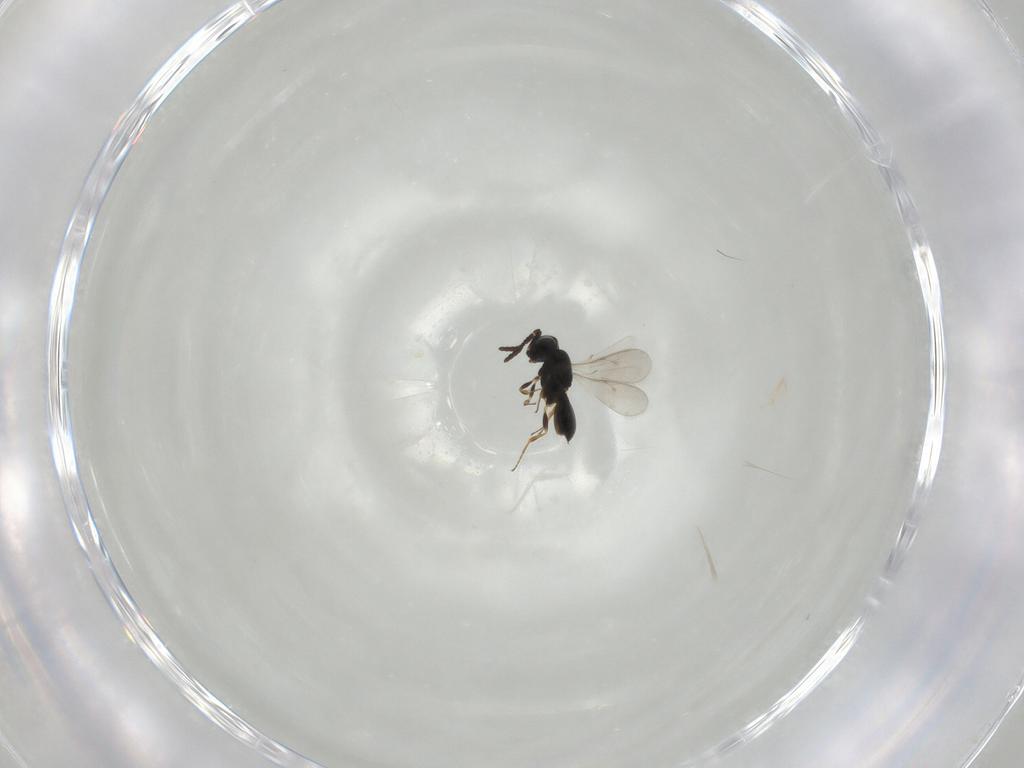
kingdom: Animalia
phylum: Arthropoda
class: Insecta
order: Hymenoptera
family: Scelionidae
